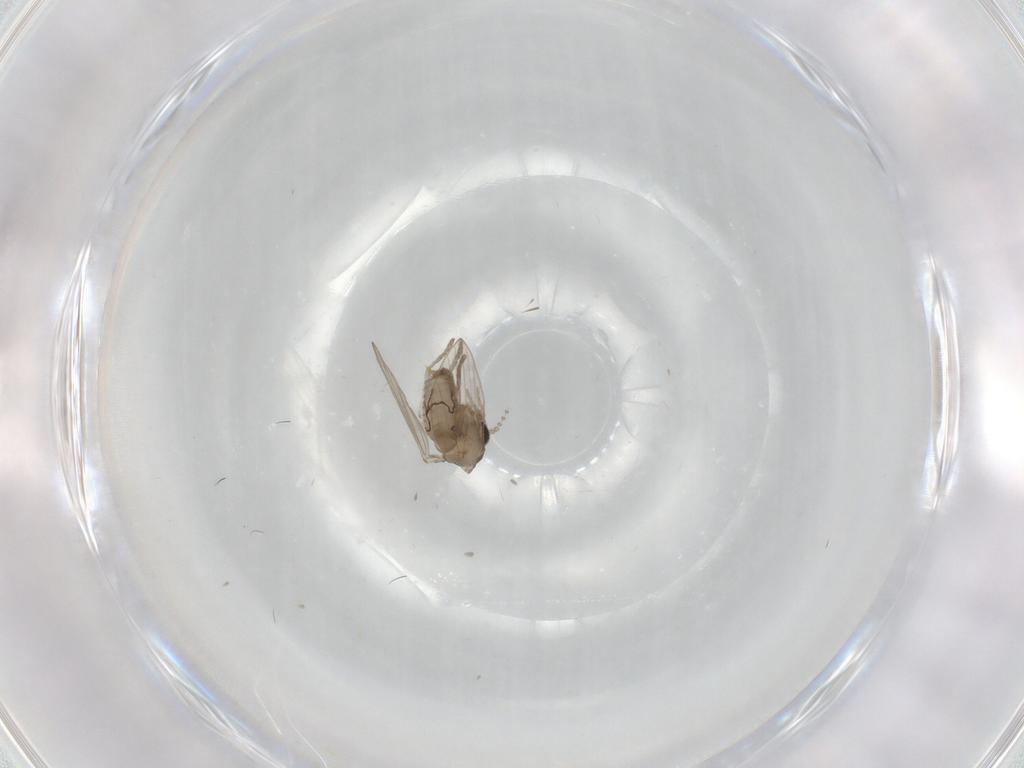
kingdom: Animalia
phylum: Arthropoda
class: Insecta
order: Diptera
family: Psychodidae
